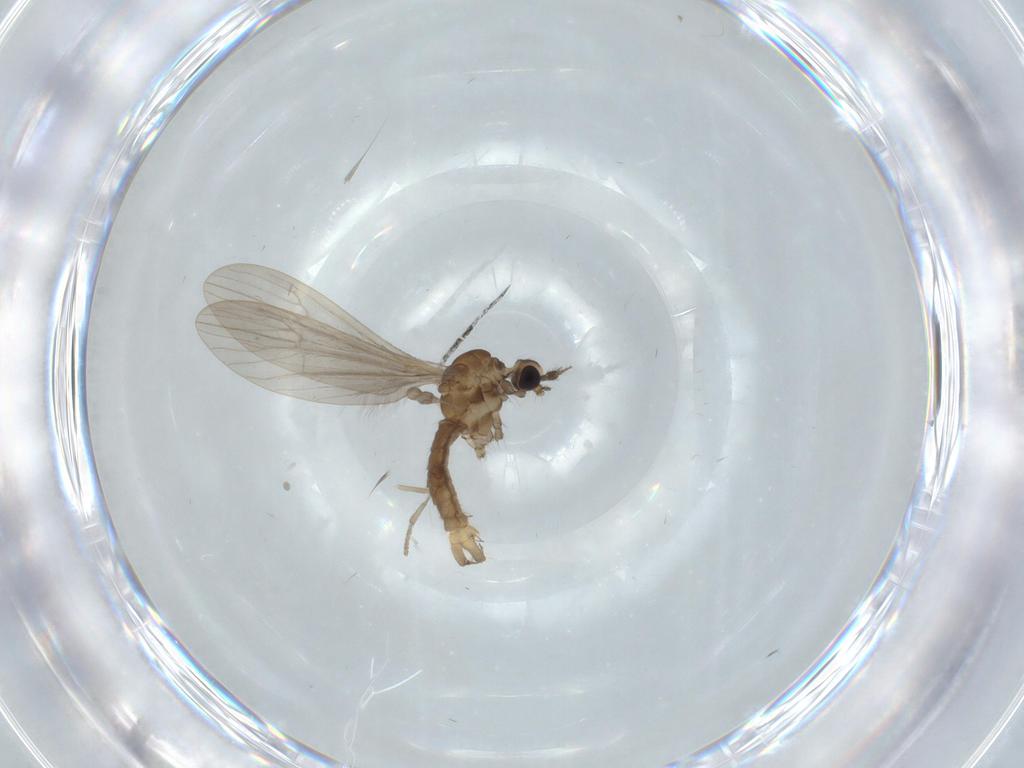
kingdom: Animalia
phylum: Arthropoda
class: Insecta
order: Diptera
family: Limoniidae
